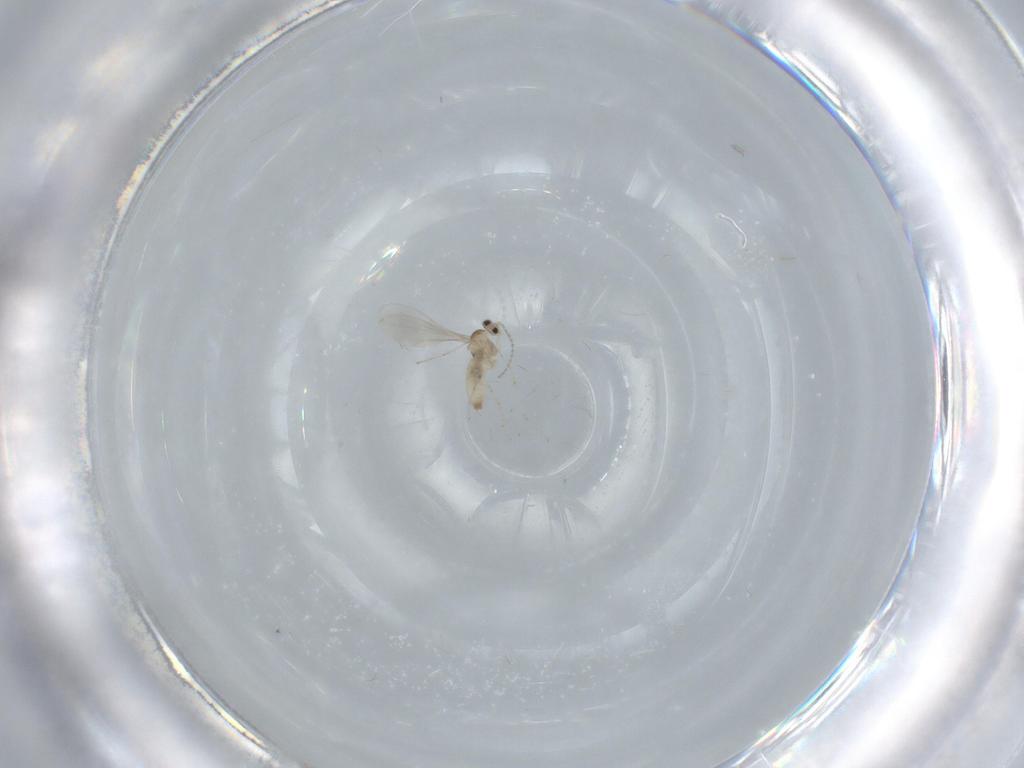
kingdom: Animalia
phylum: Arthropoda
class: Insecta
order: Diptera
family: Cecidomyiidae
